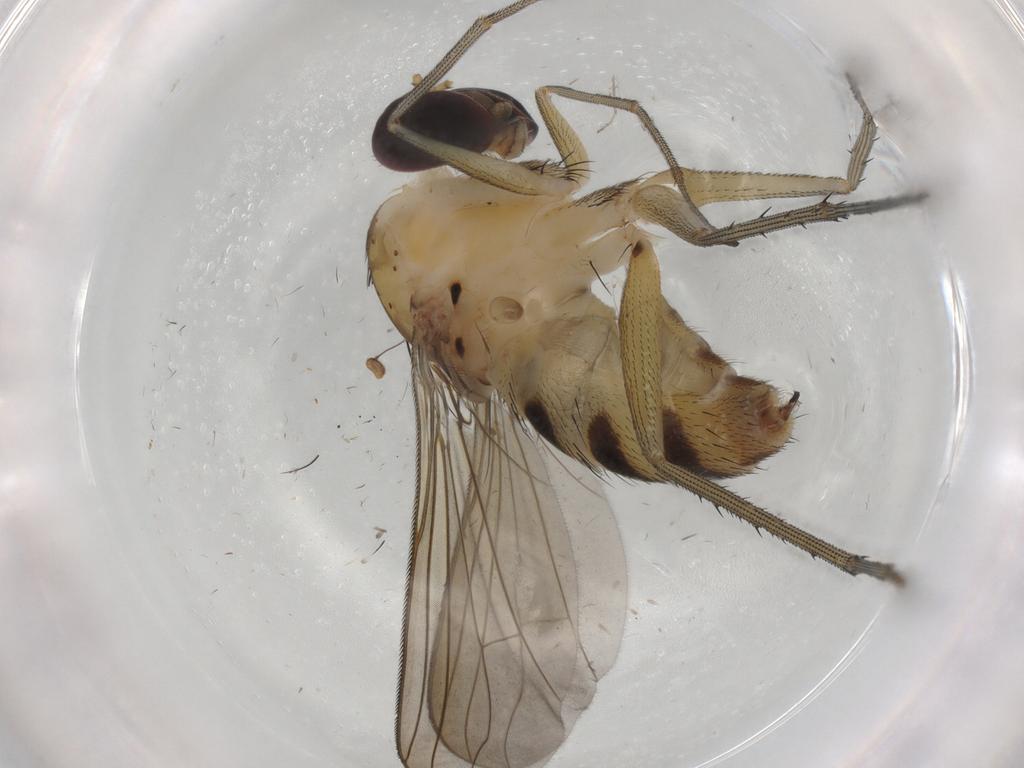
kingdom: Animalia
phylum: Arthropoda
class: Insecta
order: Diptera
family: Dolichopodidae
